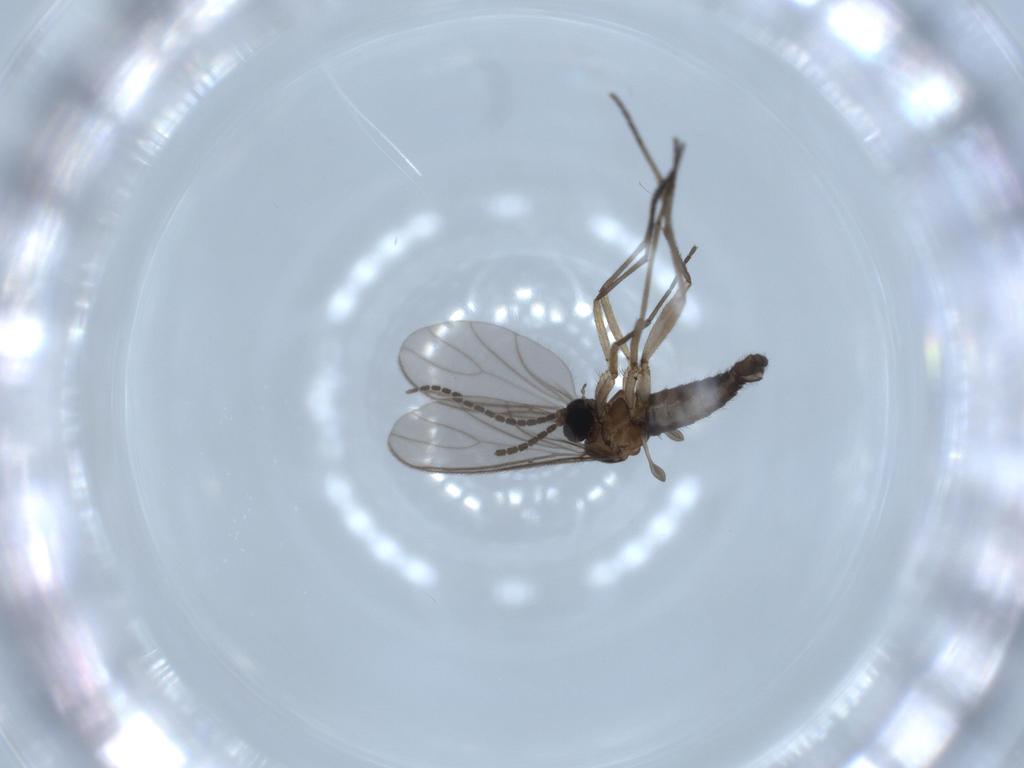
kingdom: Animalia
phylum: Arthropoda
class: Insecta
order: Diptera
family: Sciaridae
